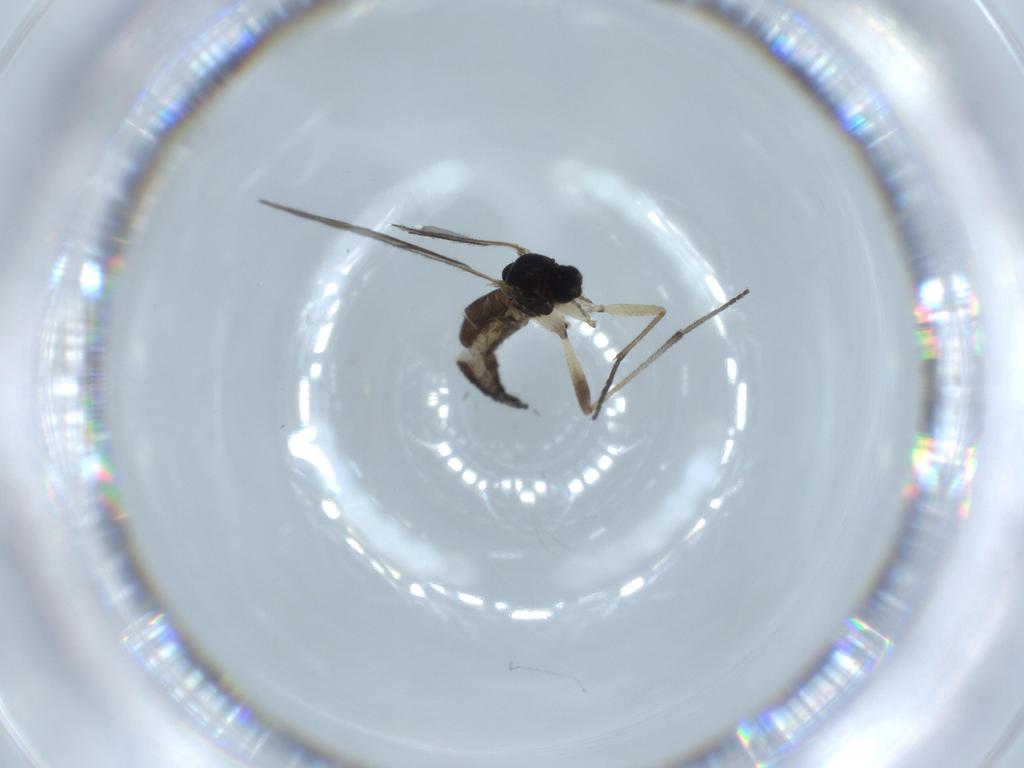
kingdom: Animalia
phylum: Arthropoda
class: Insecta
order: Diptera
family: Sciaridae
